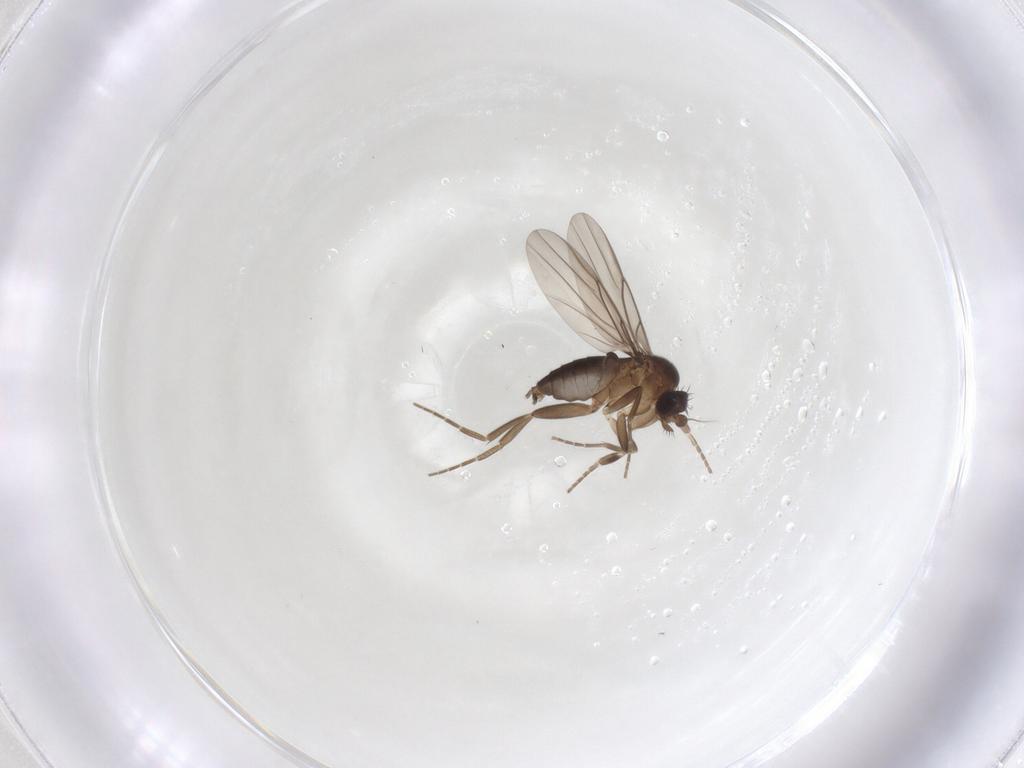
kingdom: Animalia
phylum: Arthropoda
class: Insecta
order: Diptera
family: Phoridae
